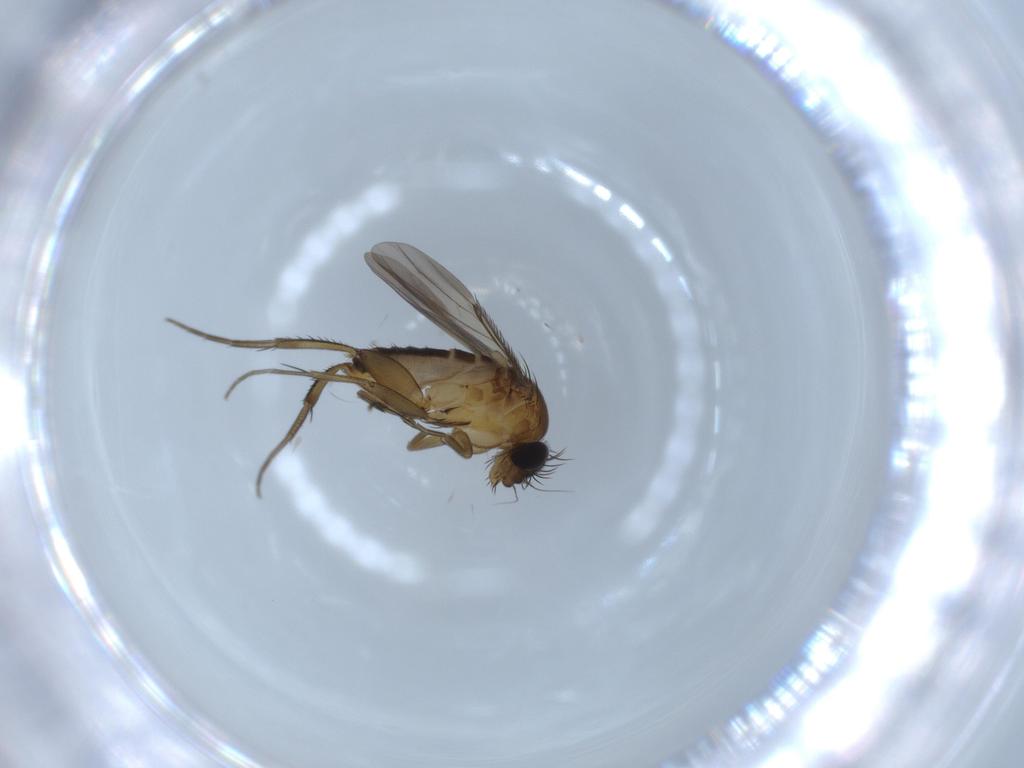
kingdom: Animalia
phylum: Arthropoda
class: Insecta
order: Diptera
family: Phoridae
